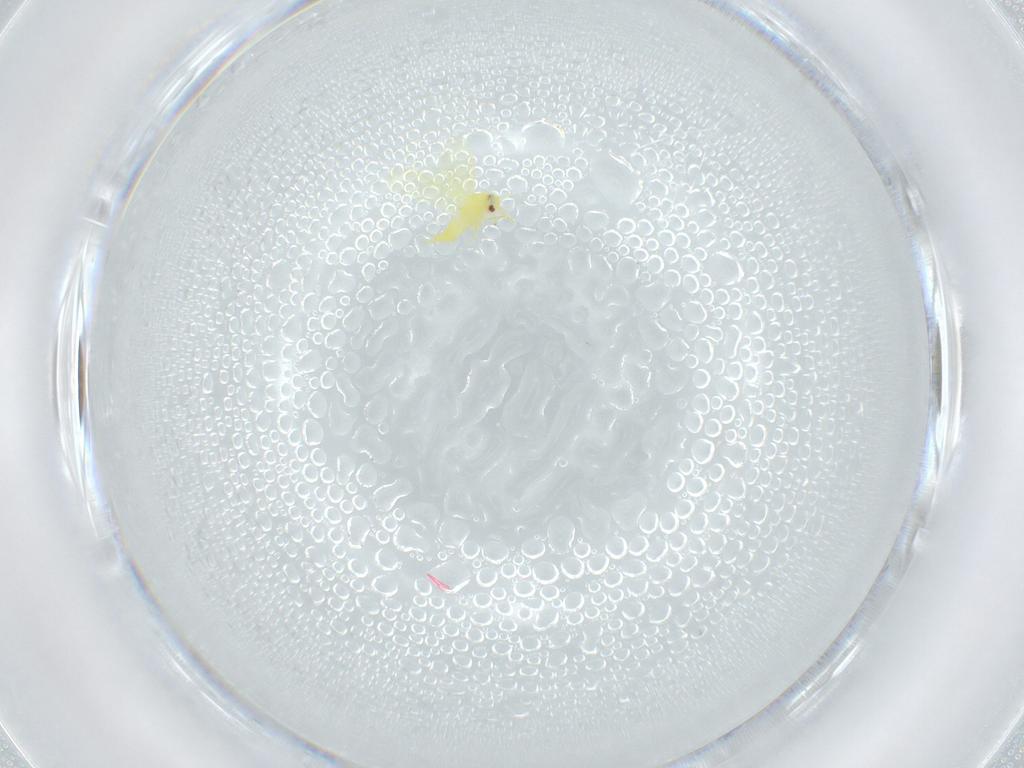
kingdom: Animalia
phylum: Arthropoda
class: Insecta
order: Hemiptera
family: Aleyrodidae
